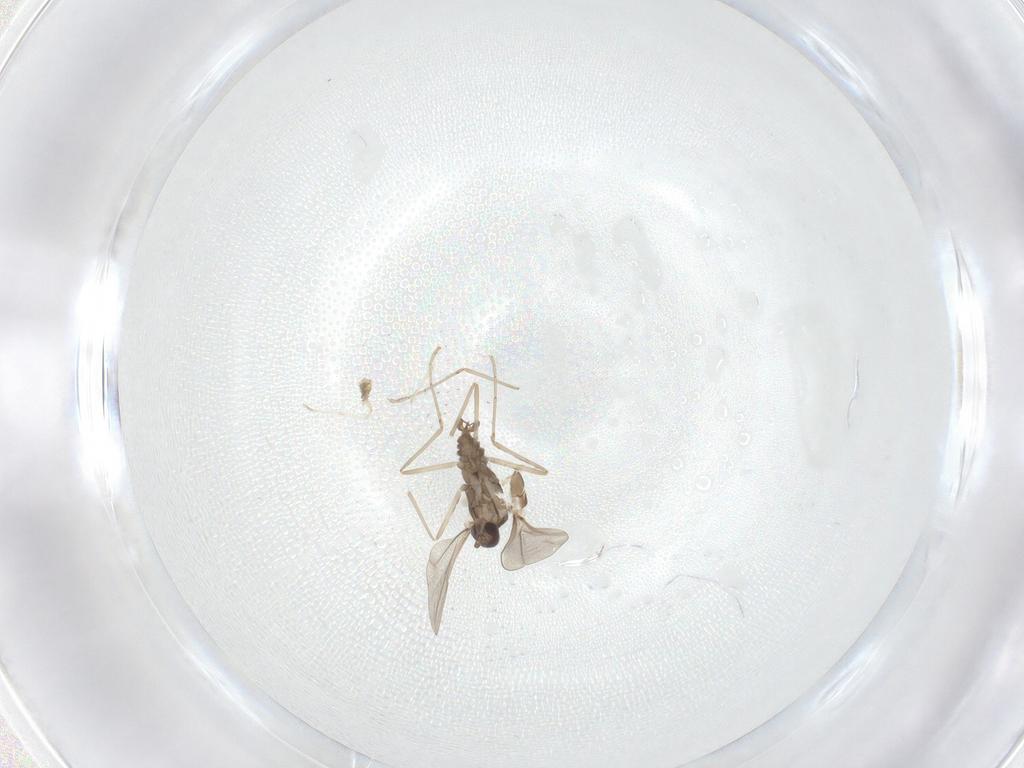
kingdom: Animalia
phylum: Arthropoda
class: Insecta
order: Diptera
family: Cecidomyiidae
